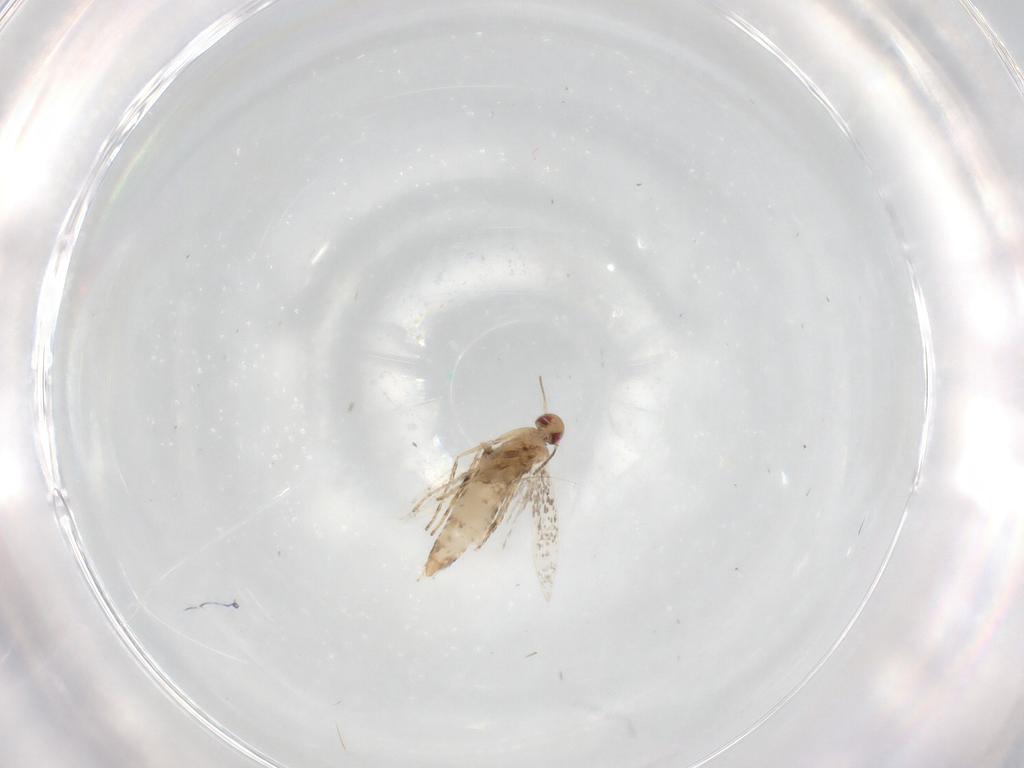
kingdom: Animalia
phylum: Arthropoda
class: Insecta
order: Lepidoptera
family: Gracillariidae
